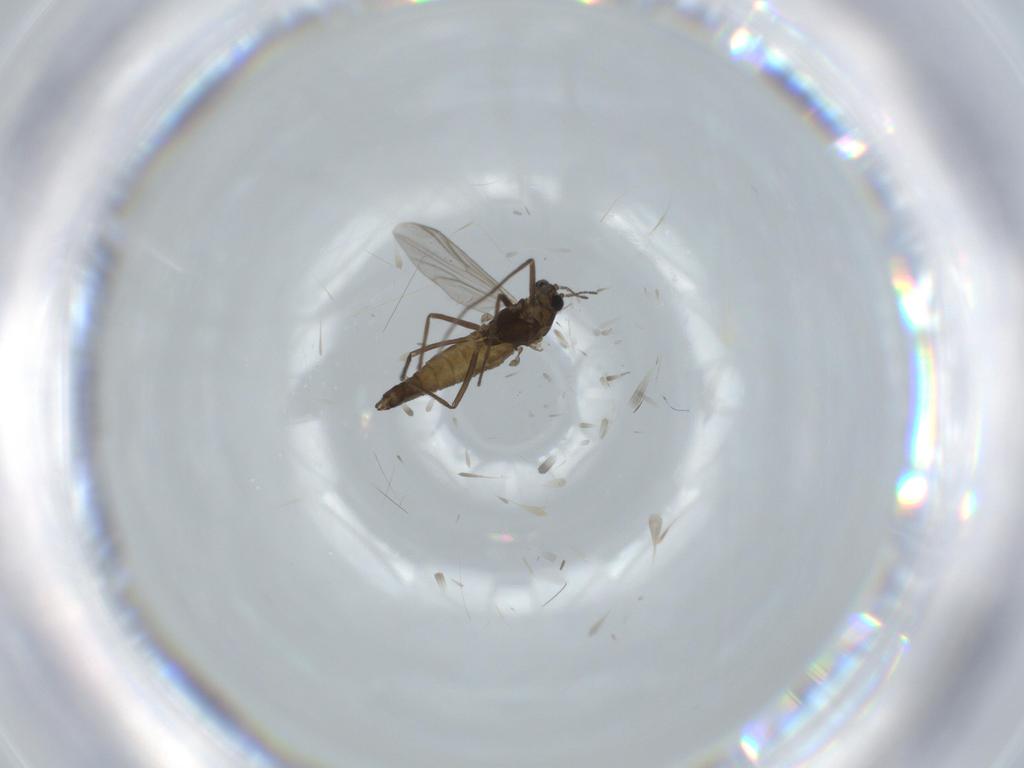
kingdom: Animalia
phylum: Arthropoda
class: Insecta
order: Diptera
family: Chironomidae
